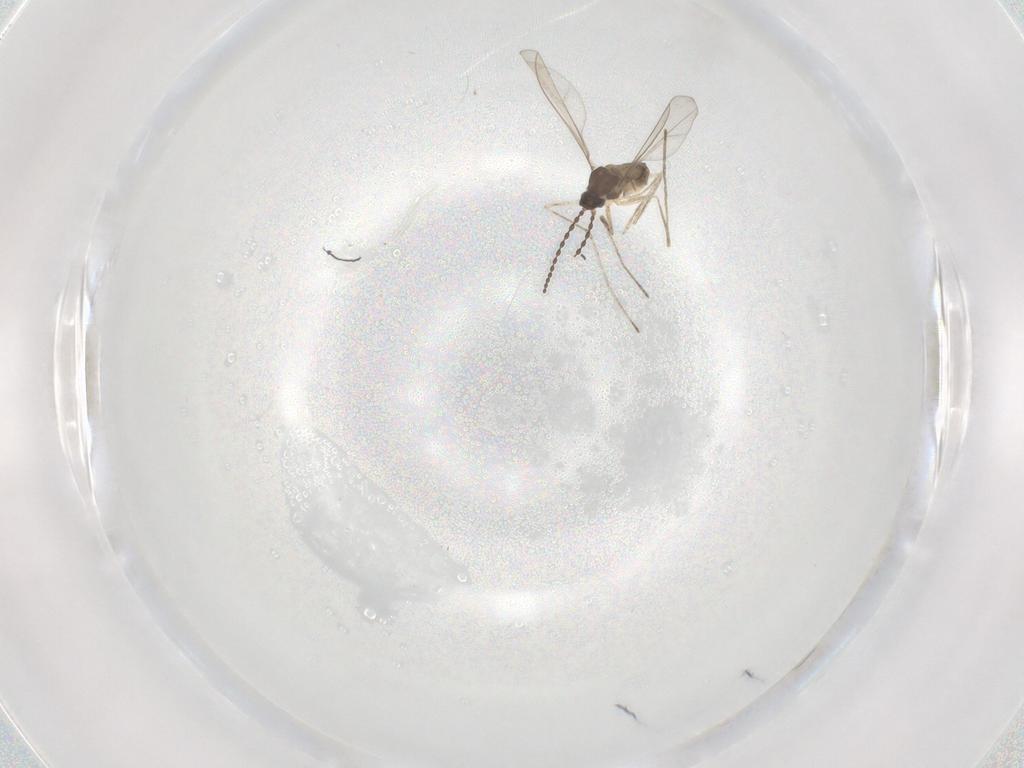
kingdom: Animalia
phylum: Arthropoda
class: Insecta
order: Diptera
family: Cecidomyiidae
